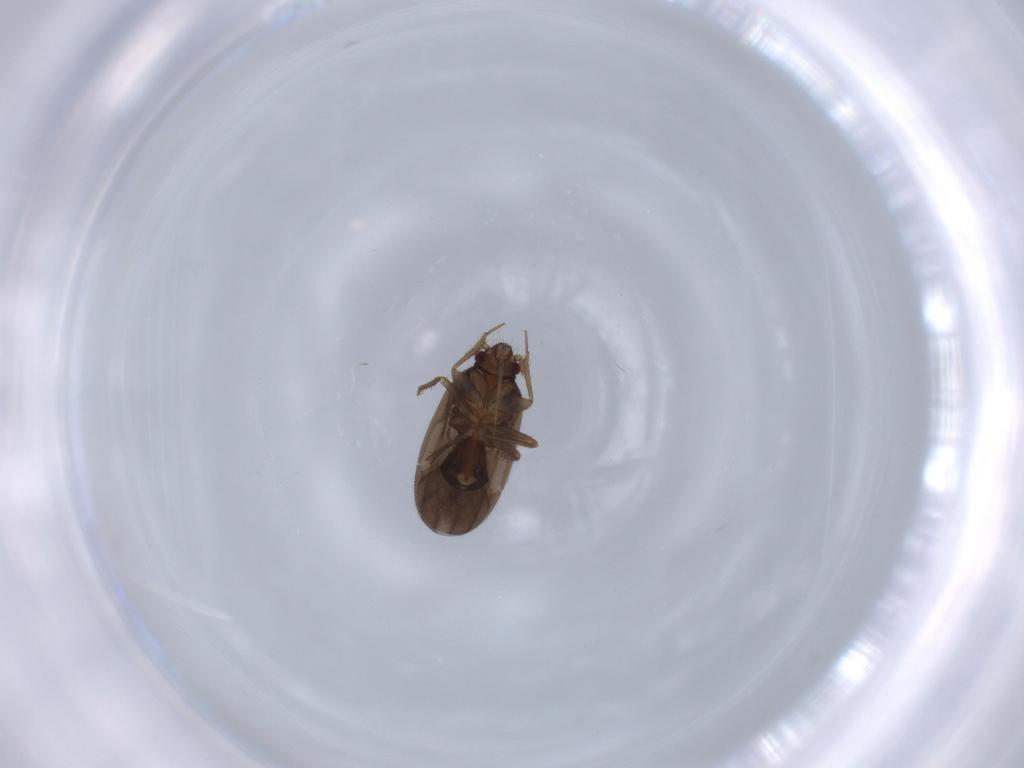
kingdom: Animalia
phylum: Arthropoda
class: Insecta
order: Hemiptera
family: Ceratocombidae
